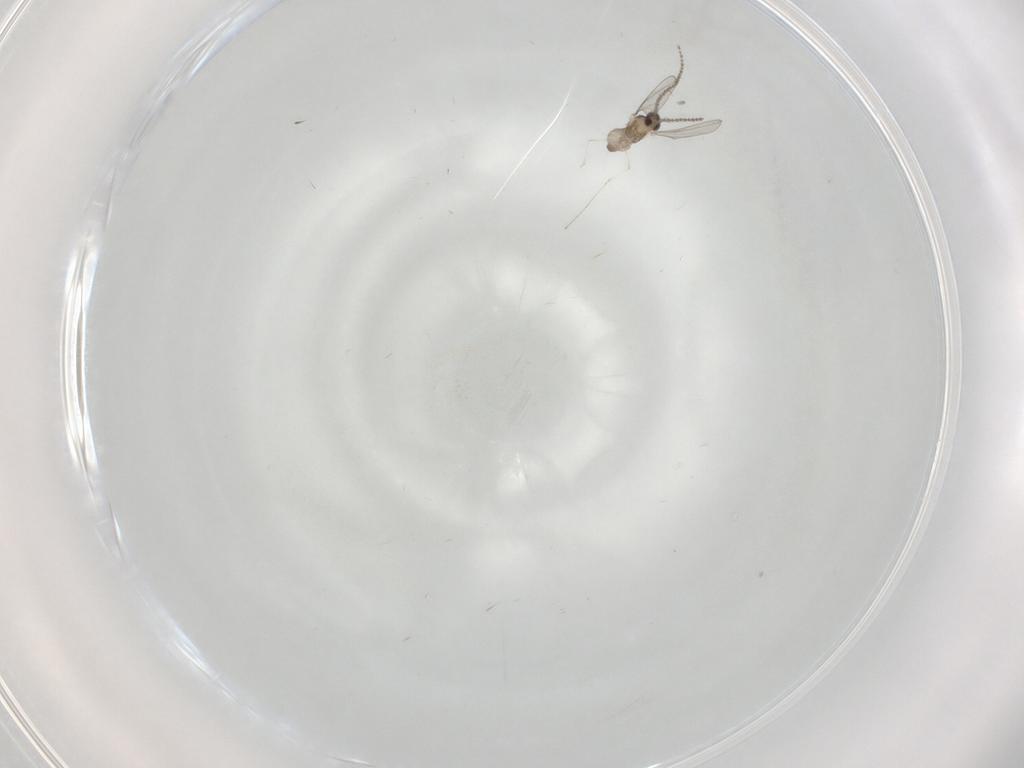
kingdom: Animalia
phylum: Arthropoda
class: Insecta
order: Diptera
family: Cecidomyiidae
